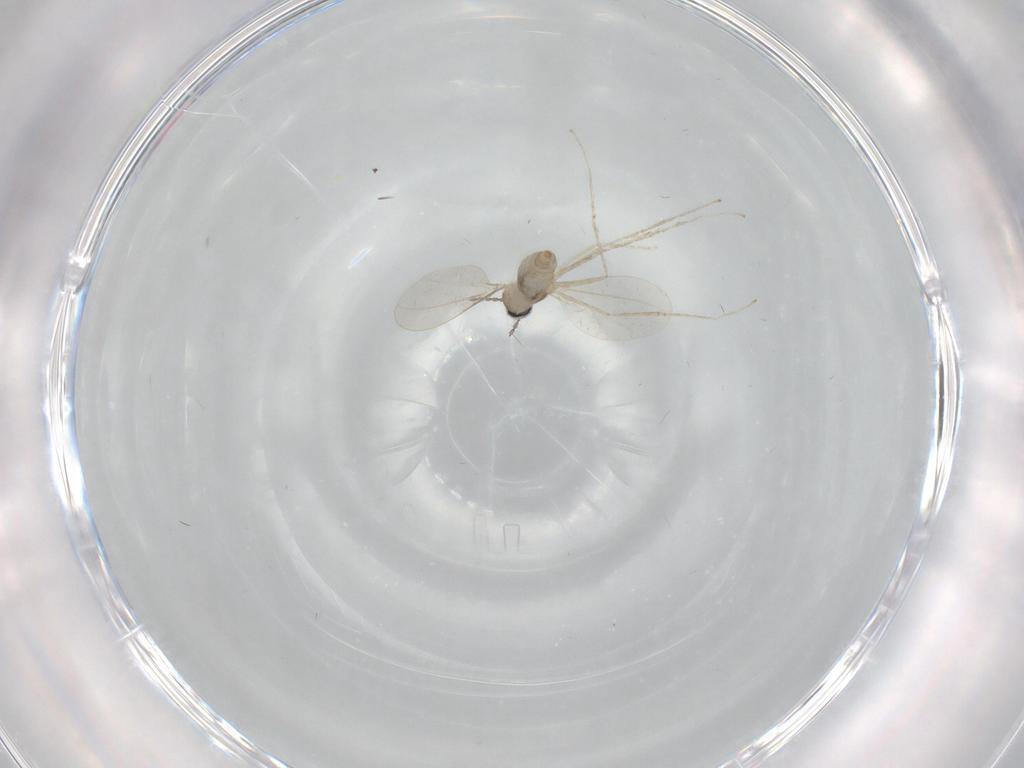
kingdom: Animalia
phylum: Arthropoda
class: Insecta
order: Diptera
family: Cecidomyiidae
